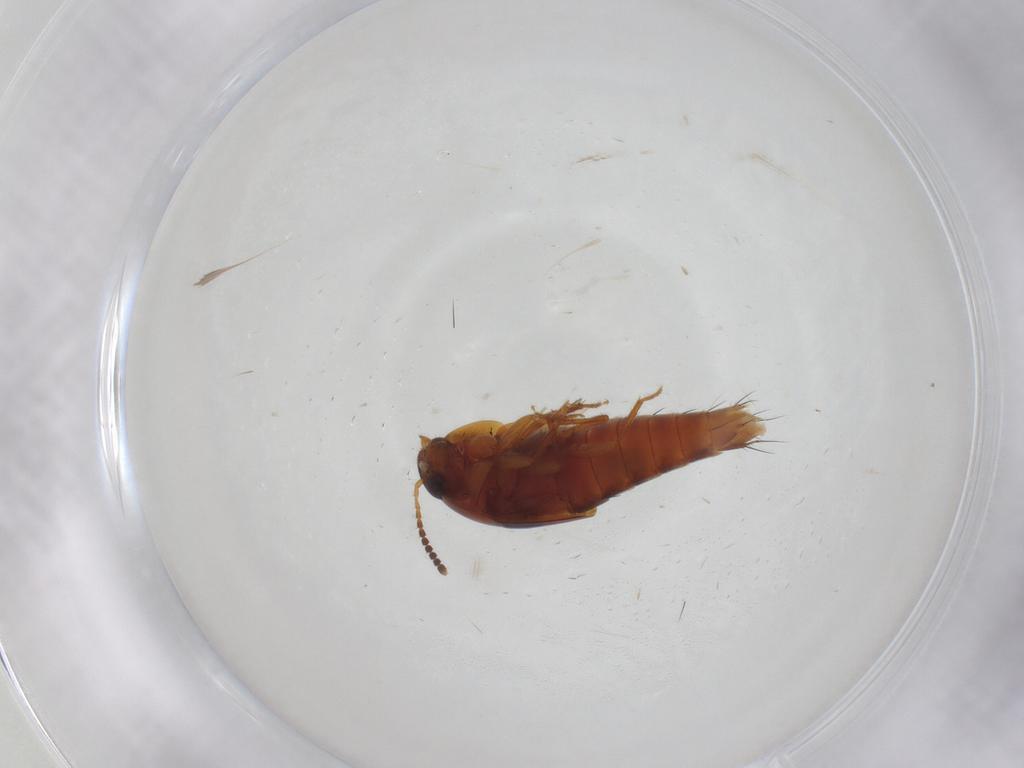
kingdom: Animalia
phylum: Arthropoda
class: Insecta
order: Coleoptera
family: Staphylinidae
